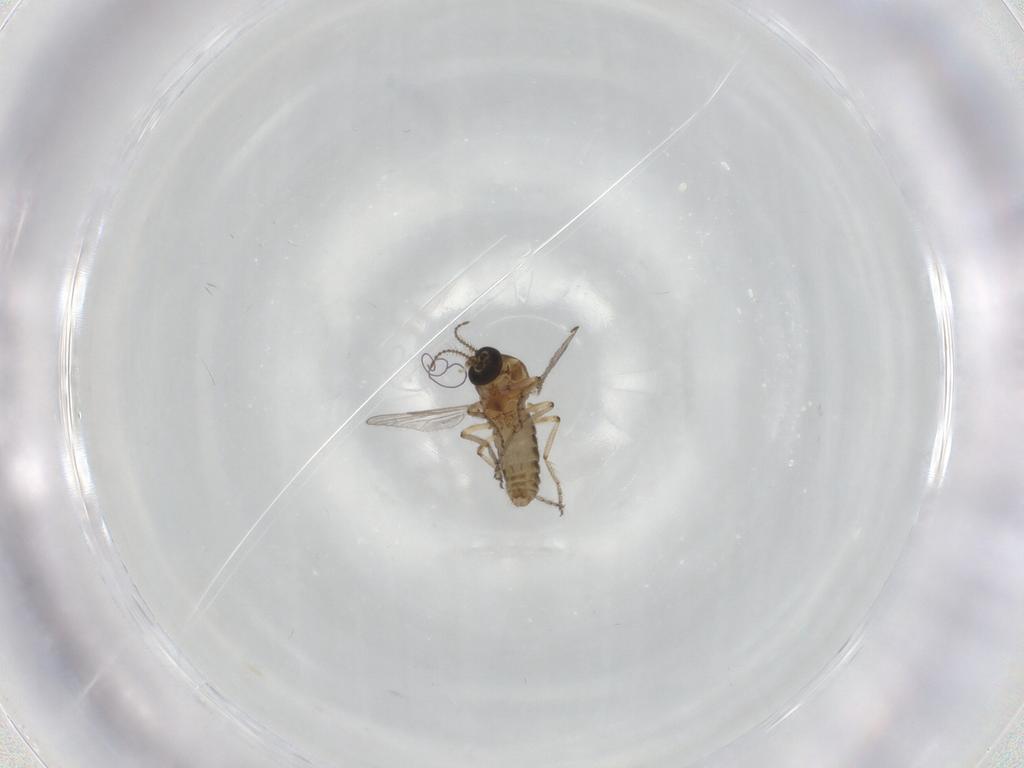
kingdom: Animalia
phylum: Arthropoda
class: Insecta
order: Diptera
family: Ceratopogonidae
